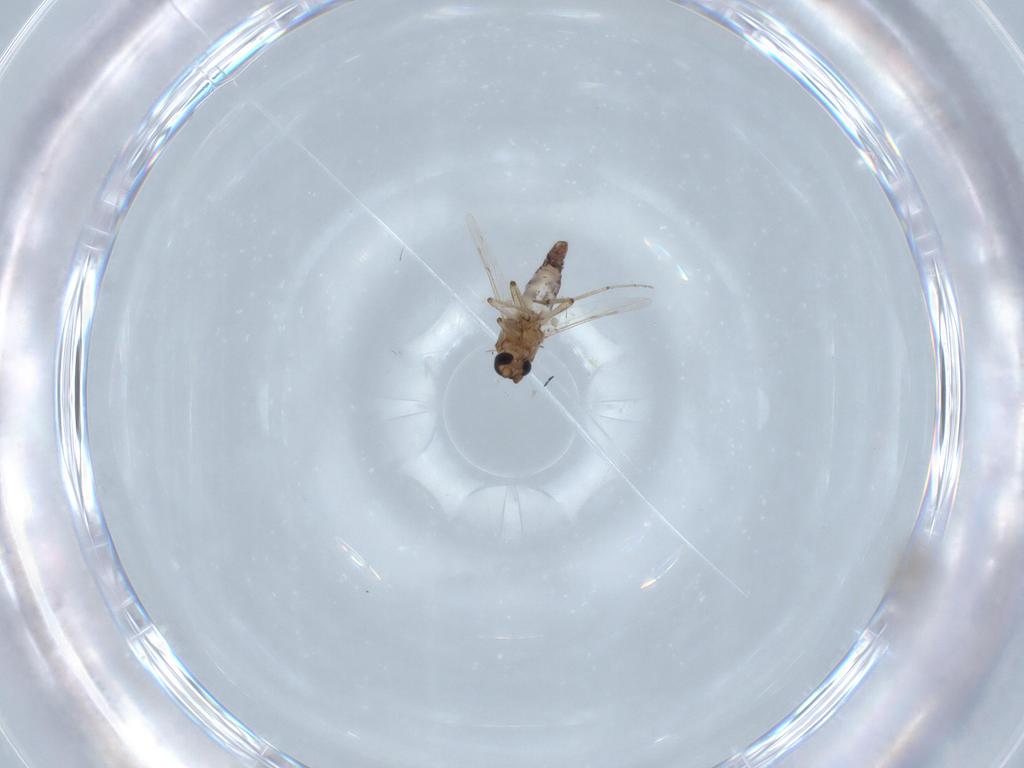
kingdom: Animalia
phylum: Arthropoda
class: Insecta
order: Diptera
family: Ceratopogonidae
